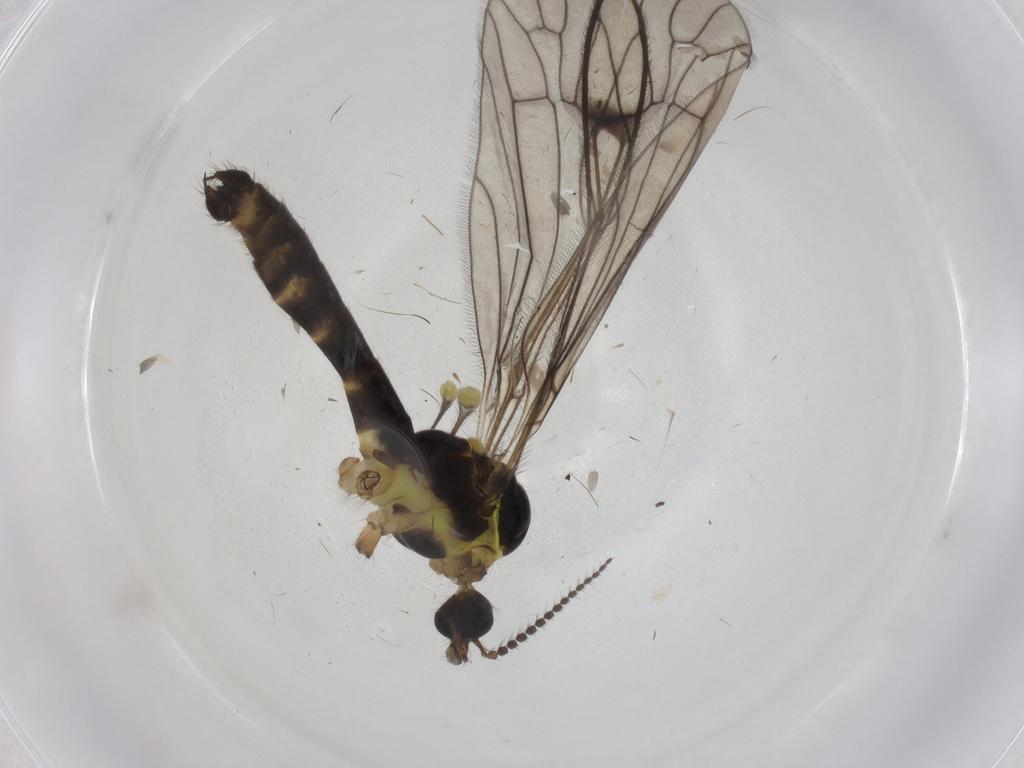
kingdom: Animalia
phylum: Arthropoda
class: Insecta
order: Diptera
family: Limoniidae
